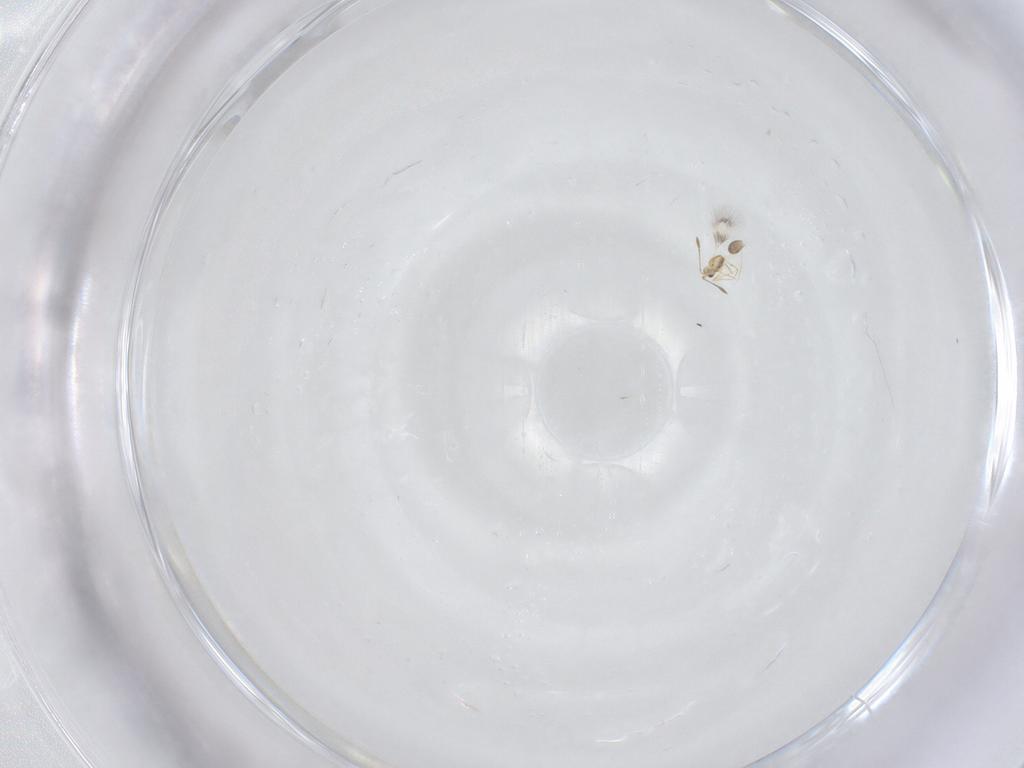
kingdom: Animalia
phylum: Arthropoda
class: Insecta
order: Hymenoptera
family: Mymarommatidae
